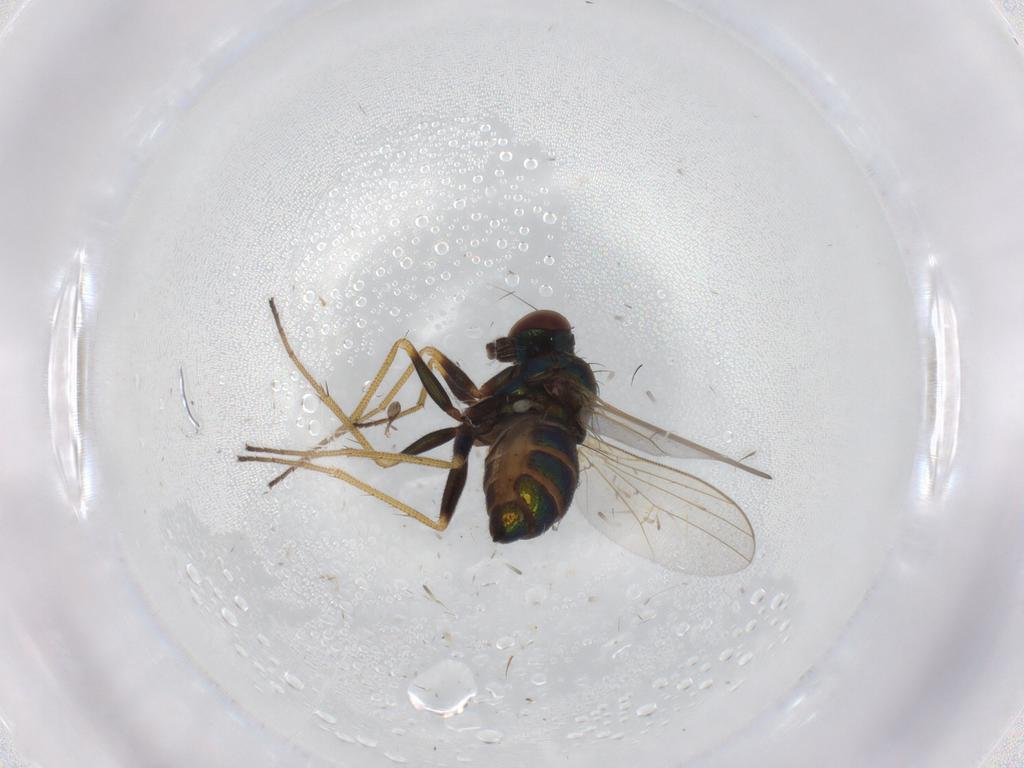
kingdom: Animalia
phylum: Arthropoda
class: Insecta
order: Diptera
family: Dolichopodidae
